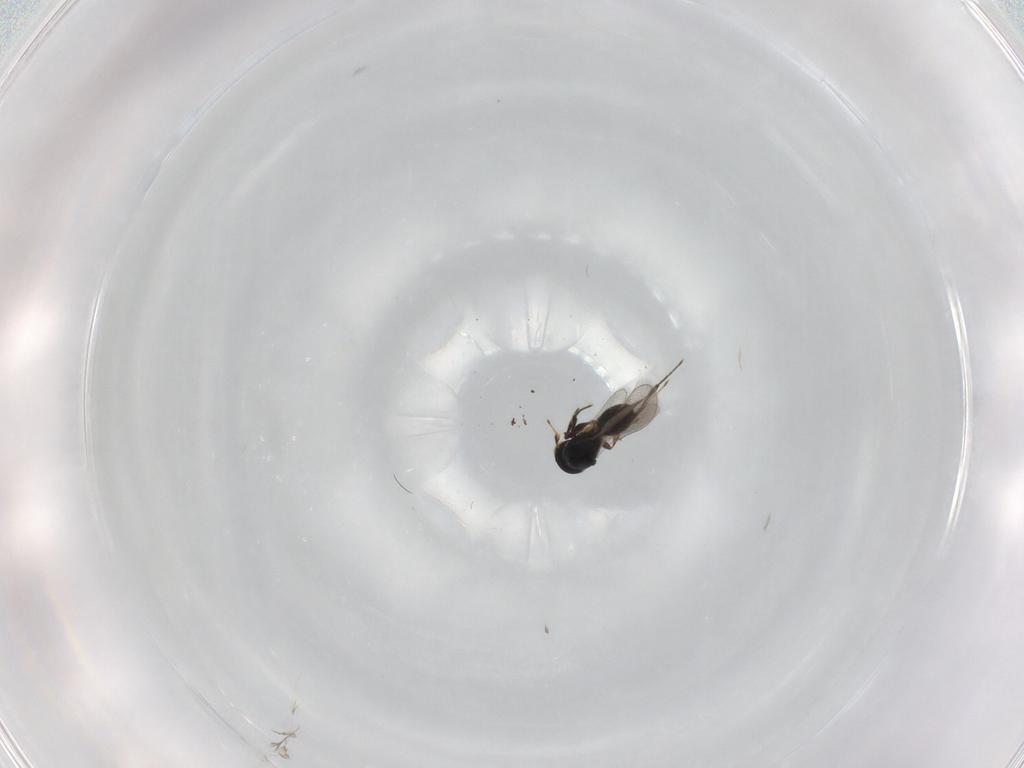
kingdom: Animalia
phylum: Arthropoda
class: Insecta
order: Hymenoptera
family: Platygastridae
